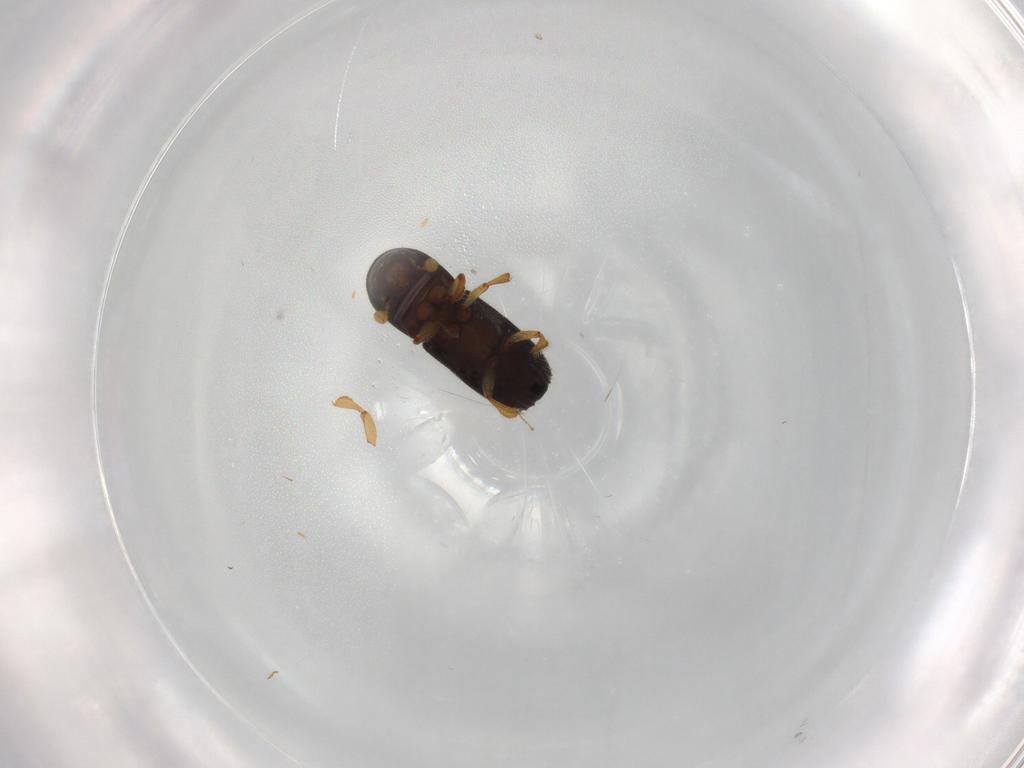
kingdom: Animalia
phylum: Arthropoda
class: Insecta
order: Coleoptera
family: Curculionidae
